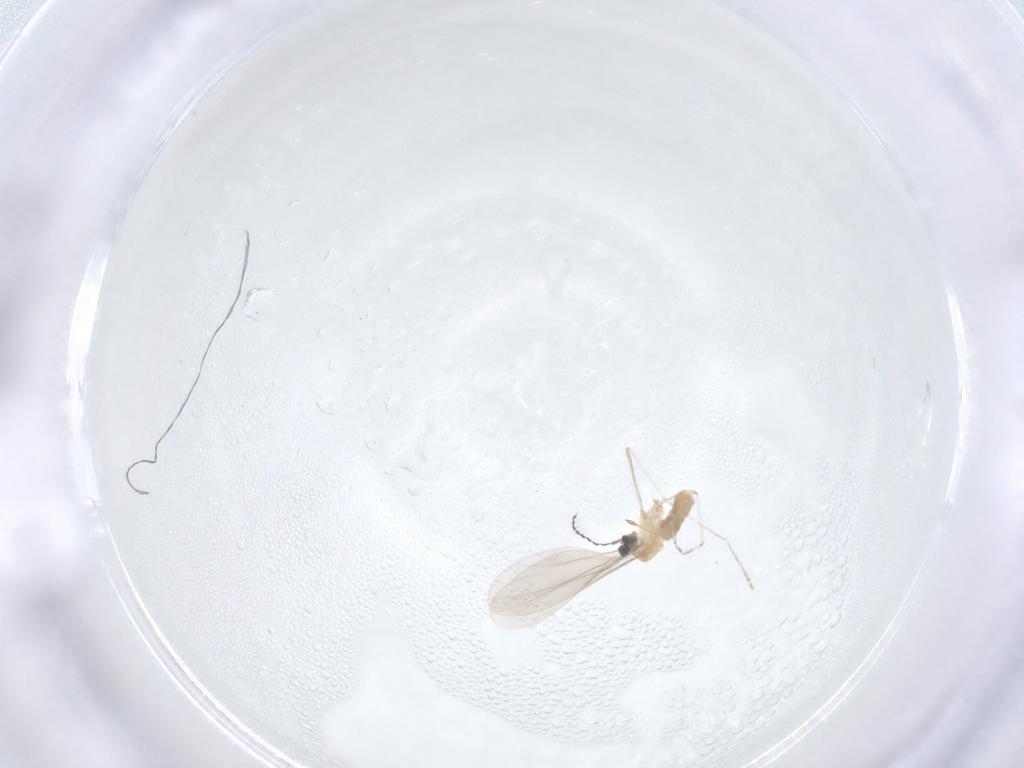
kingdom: Animalia
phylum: Arthropoda
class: Insecta
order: Diptera
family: Cecidomyiidae
